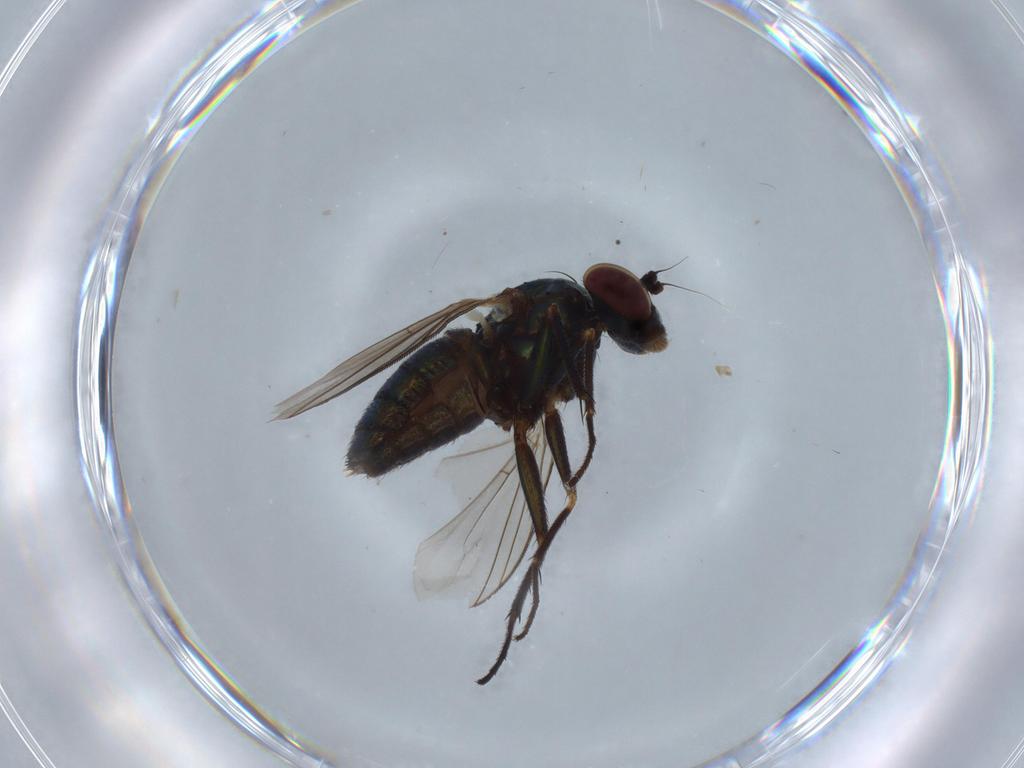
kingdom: Animalia
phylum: Arthropoda
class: Insecta
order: Diptera
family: Dolichopodidae
